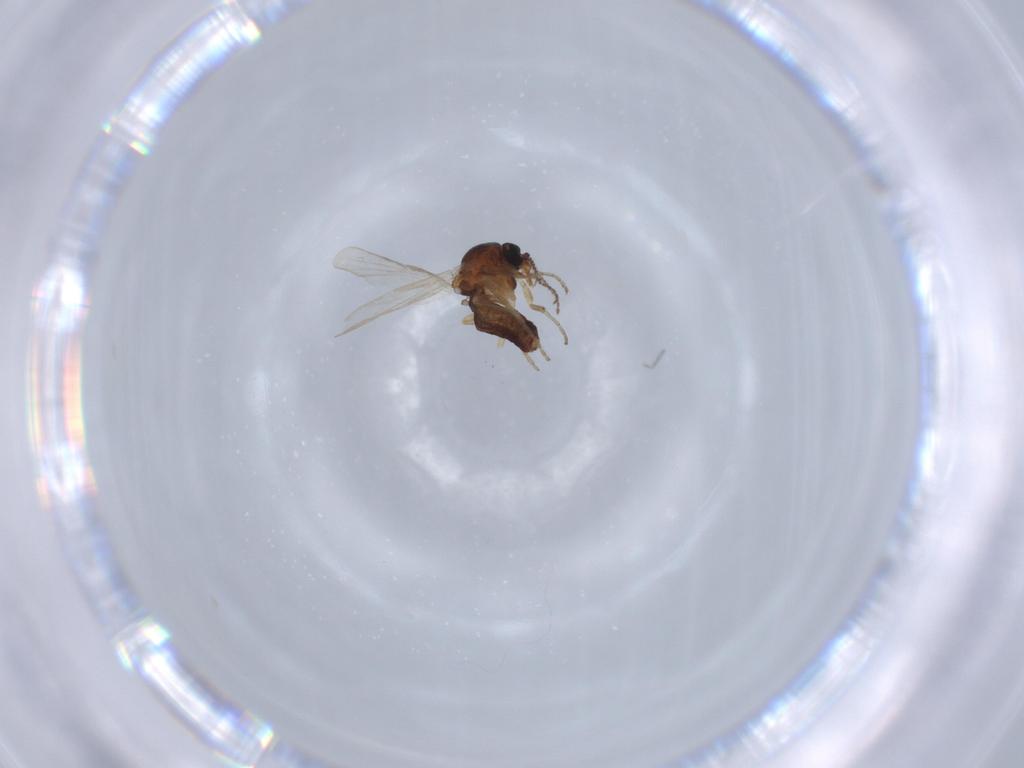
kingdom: Animalia
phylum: Arthropoda
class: Insecta
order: Diptera
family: Ceratopogonidae
